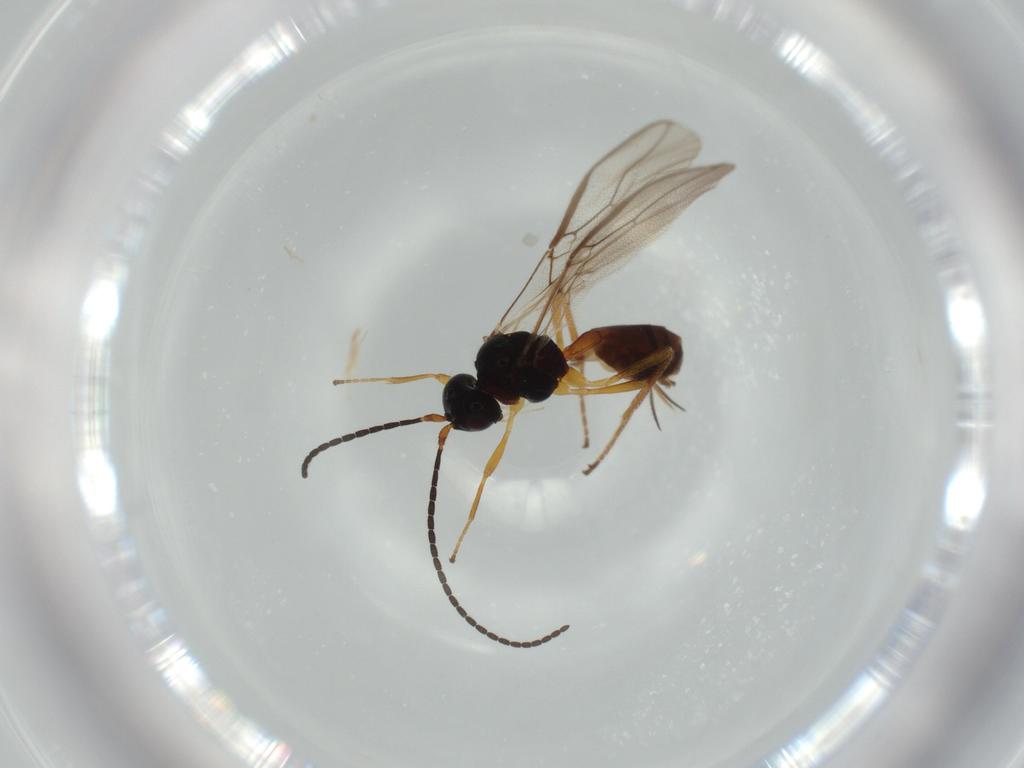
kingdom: Animalia
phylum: Arthropoda
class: Insecta
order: Hymenoptera
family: Braconidae
